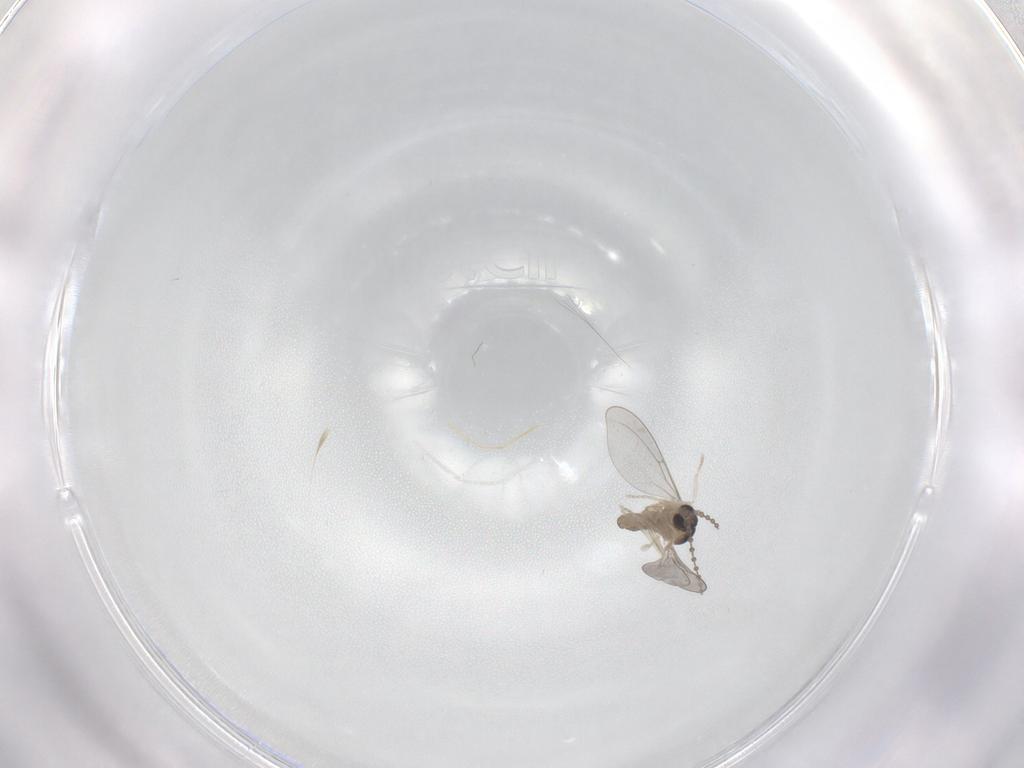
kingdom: Animalia
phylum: Arthropoda
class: Insecta
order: Diptera
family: Cecidomyiidae
